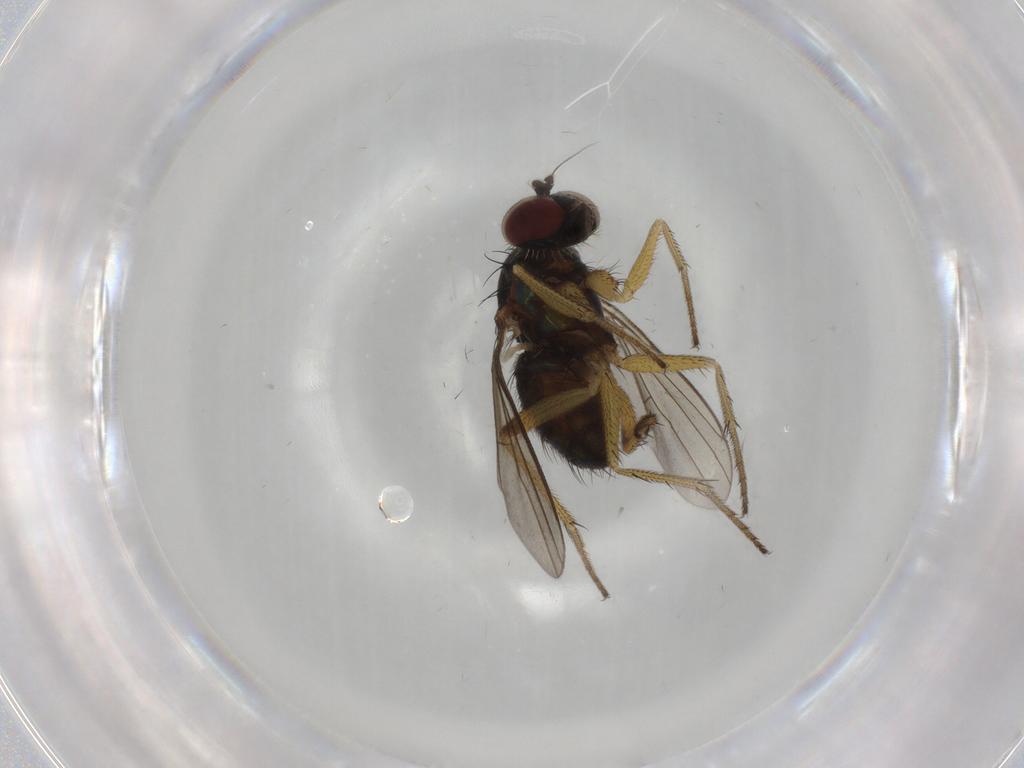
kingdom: Animalia
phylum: Arthropoda
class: Insecta
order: Diptera
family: Dolichopodidae
